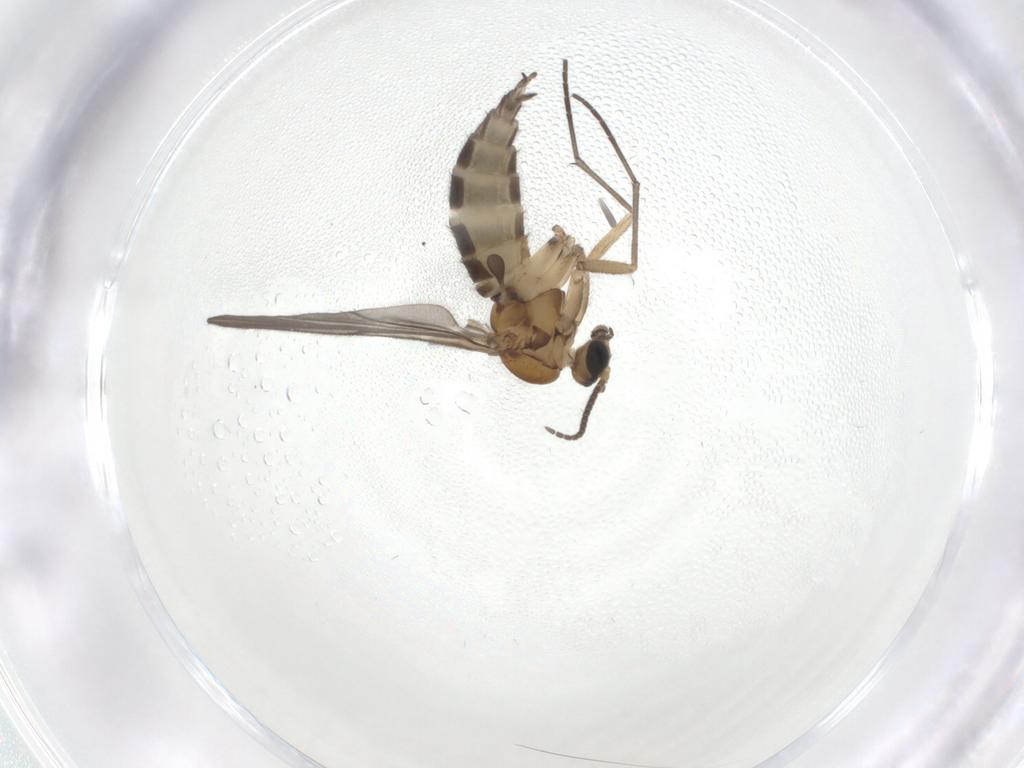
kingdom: Animalia
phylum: Arthropoda
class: Insecta
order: Diptera
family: Sciaridae
